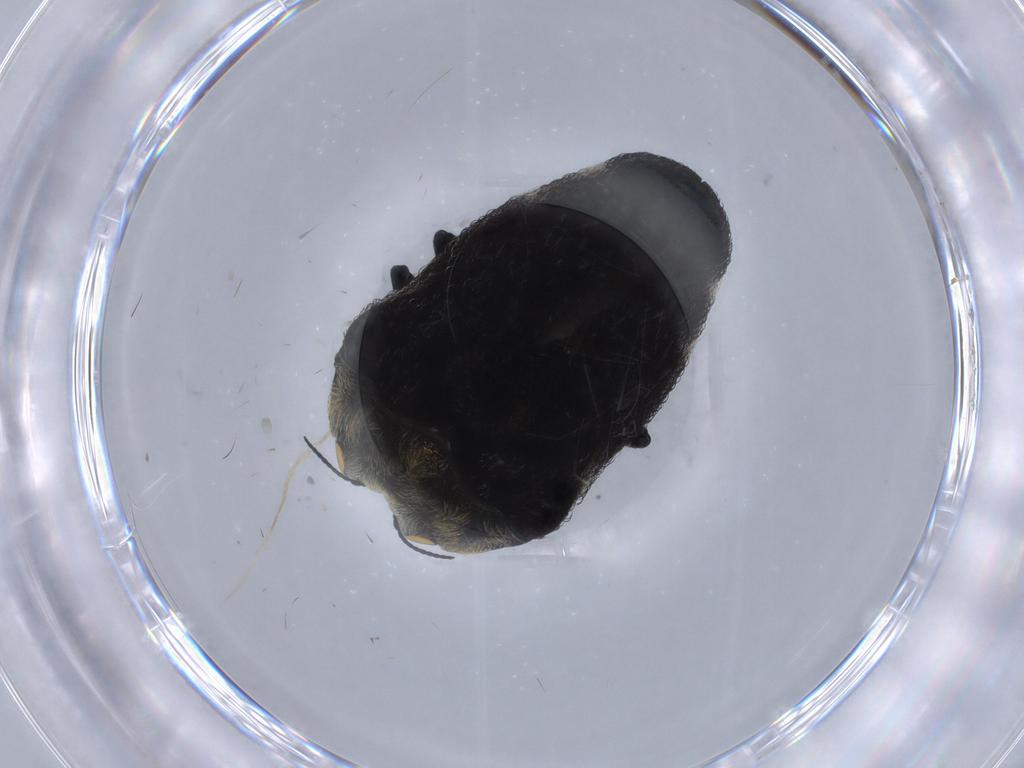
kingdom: Animalia
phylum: Arthropoda
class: Insecta
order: Coleoptera
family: Buprestidae
